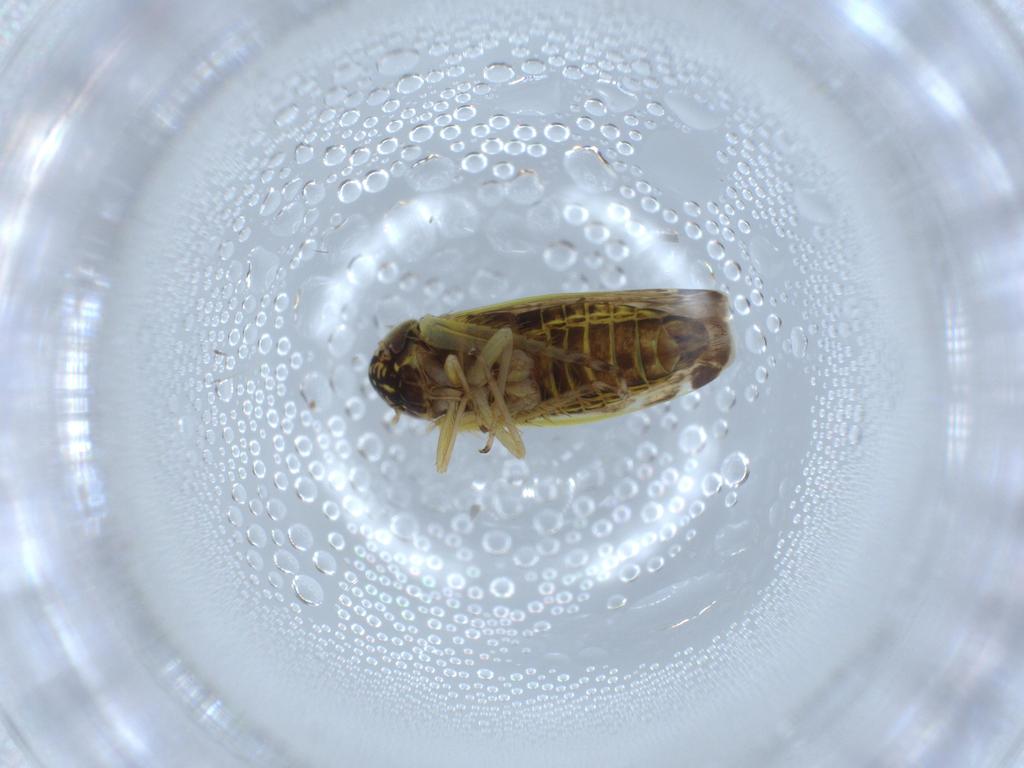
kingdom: Animalia
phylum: Arthropoda
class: Insecta
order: Hemiptera
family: Cicadellidae
